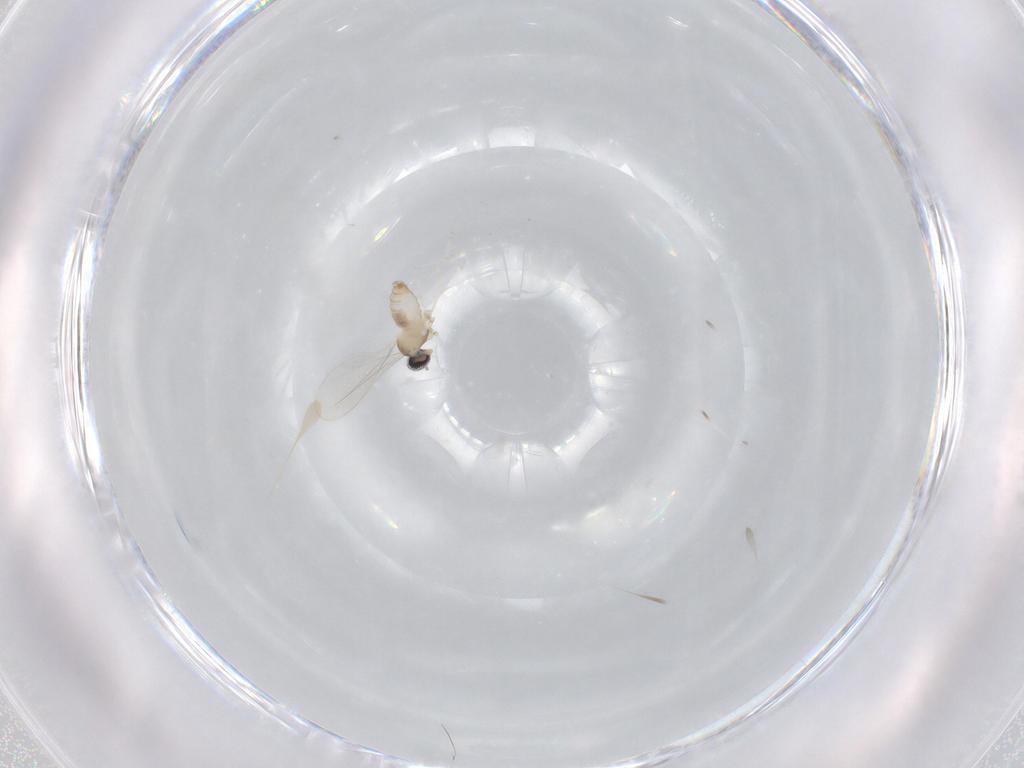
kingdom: Animalia
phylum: Arthropoda
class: Insecta
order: Diptera
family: Cecidomyiidae
